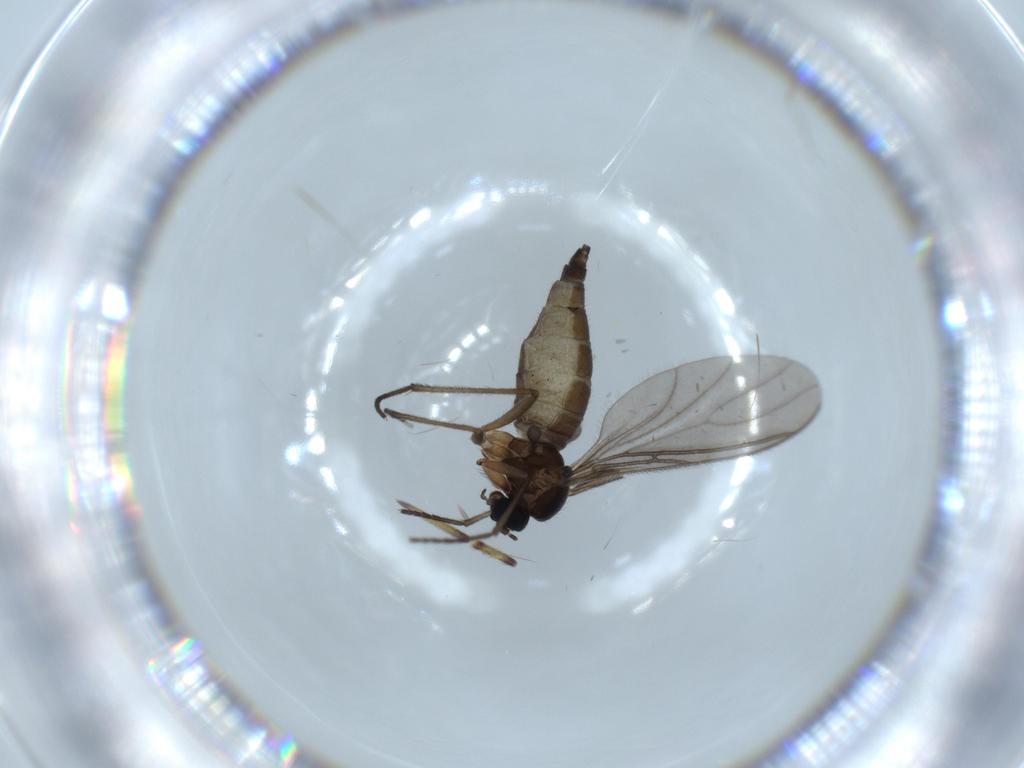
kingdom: Animalia
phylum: Arthropoda
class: Insecta
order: Diptera
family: Sciaridae
